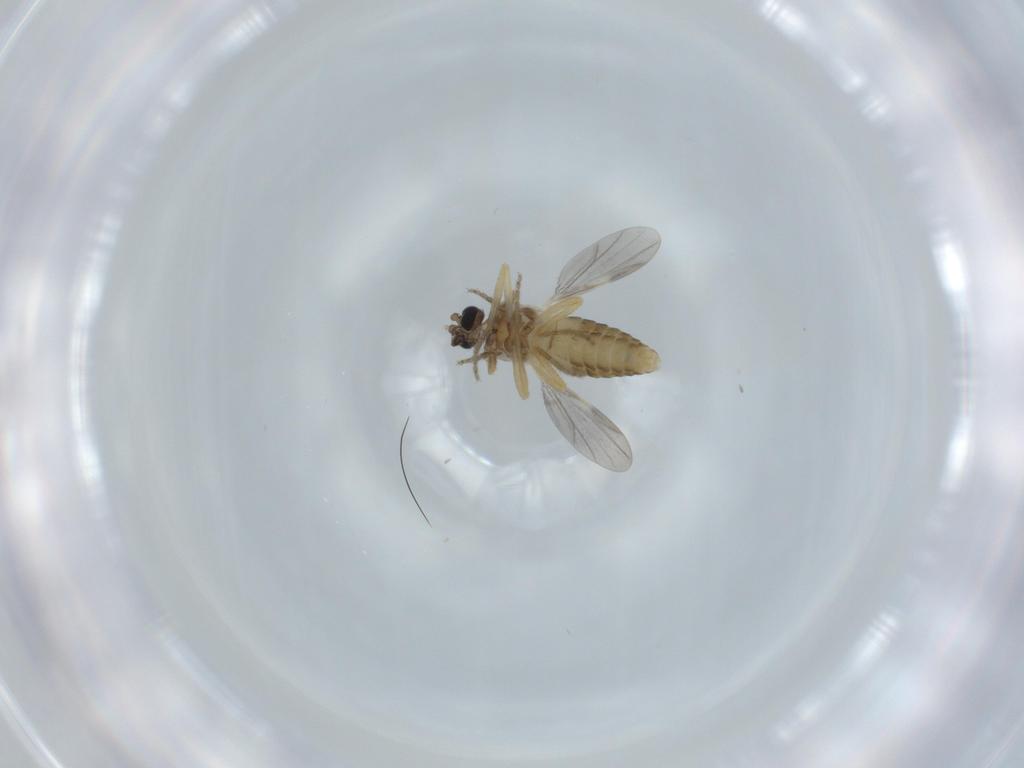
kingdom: Animalia
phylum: Arthropoda
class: Insecta
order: Diptera
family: Ceratopogonidae
